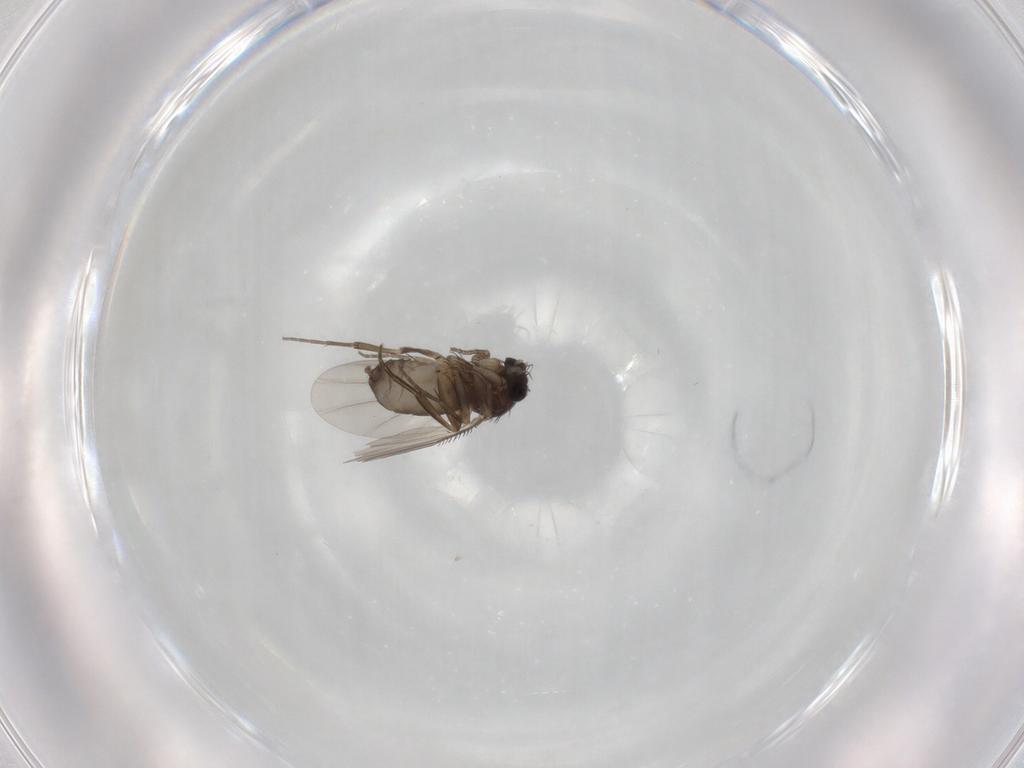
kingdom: Animalia
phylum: Arthropoda
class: Insecta
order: Diptera
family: Phoridae
